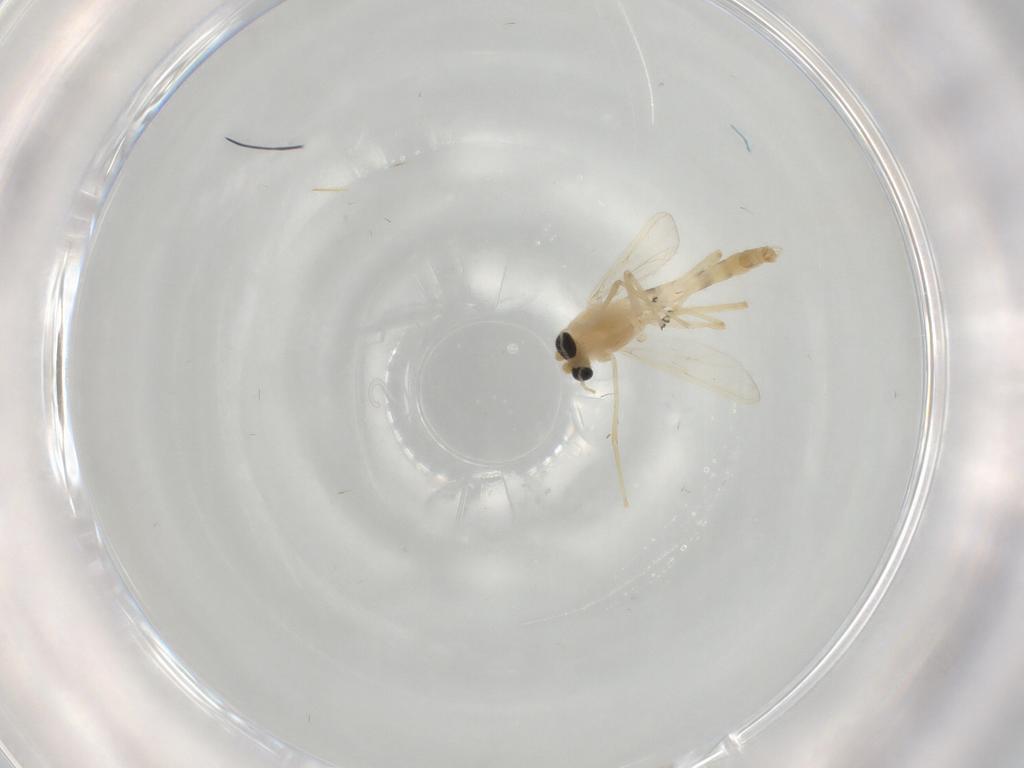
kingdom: Animalia
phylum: Arthropoda
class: Insecta
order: Diptera
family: Chironomidae
